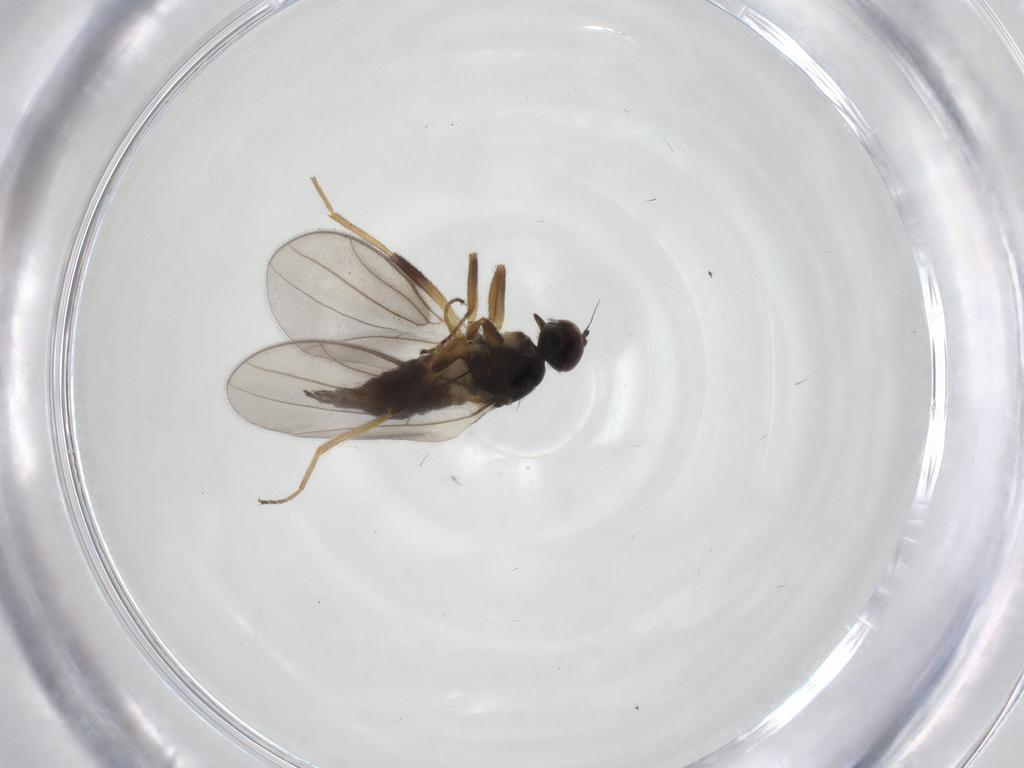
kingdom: Animalia
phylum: Arthropoda
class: Insecta
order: Diptera
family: Hybotidae
